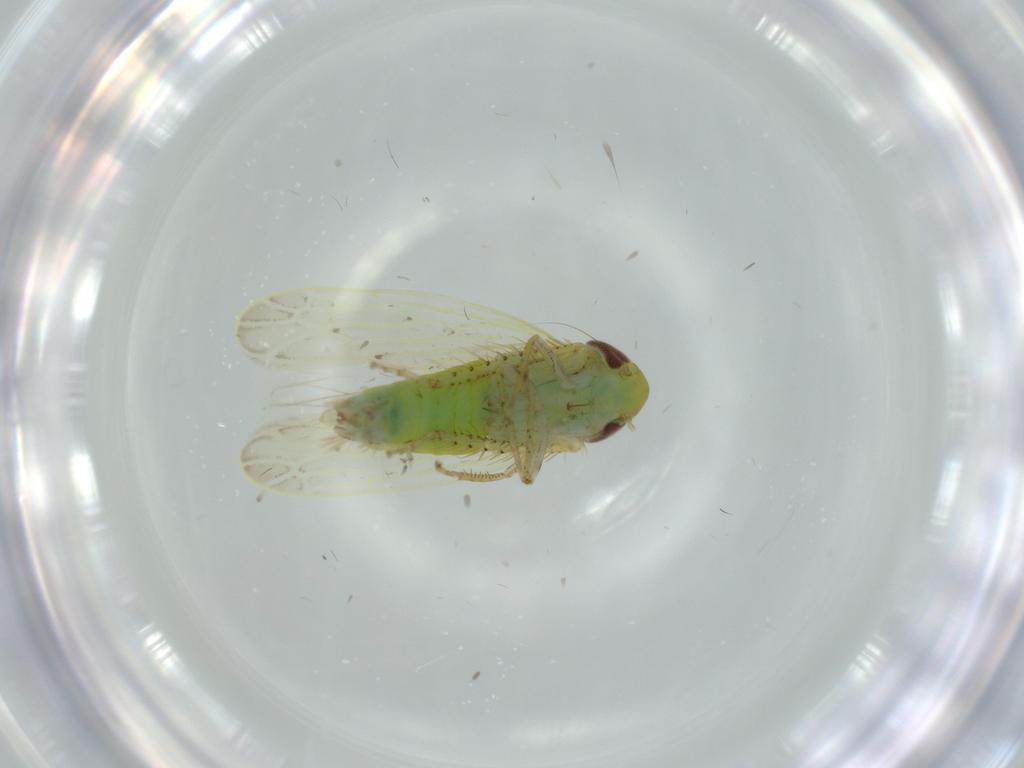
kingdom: Animalia
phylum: Arthropoda
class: Insecta
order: Hemiptera
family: Cicadellidae
